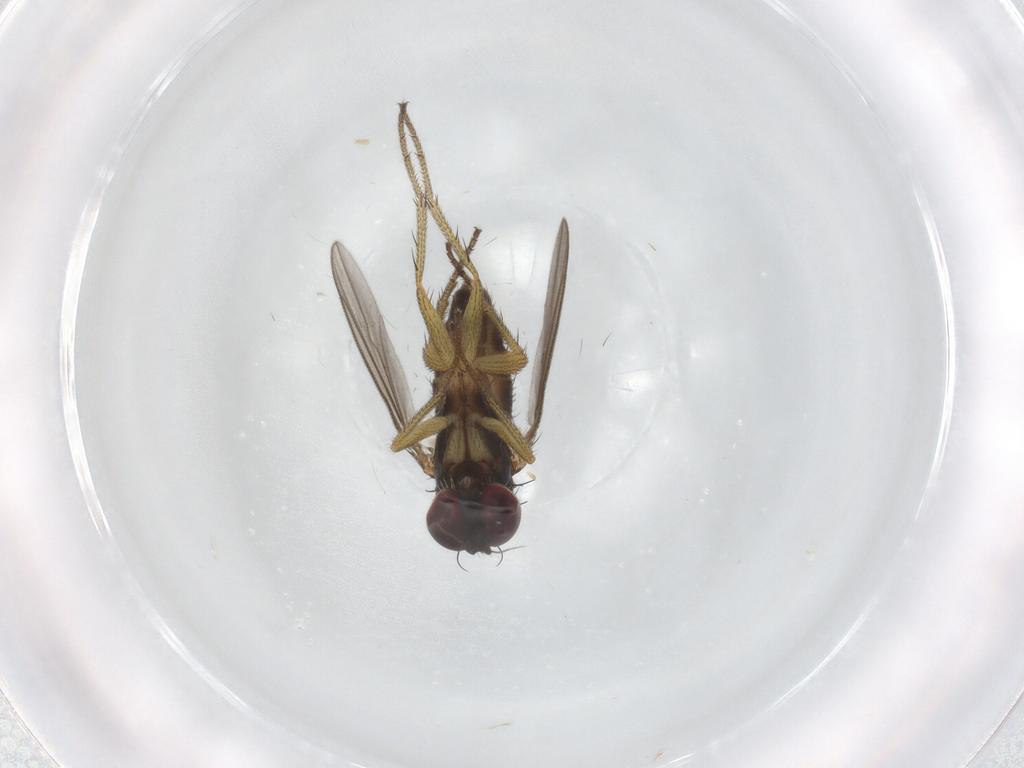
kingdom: Animalia
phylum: Arthropoda
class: Insecta
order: Diptera
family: Dolichopodidae
